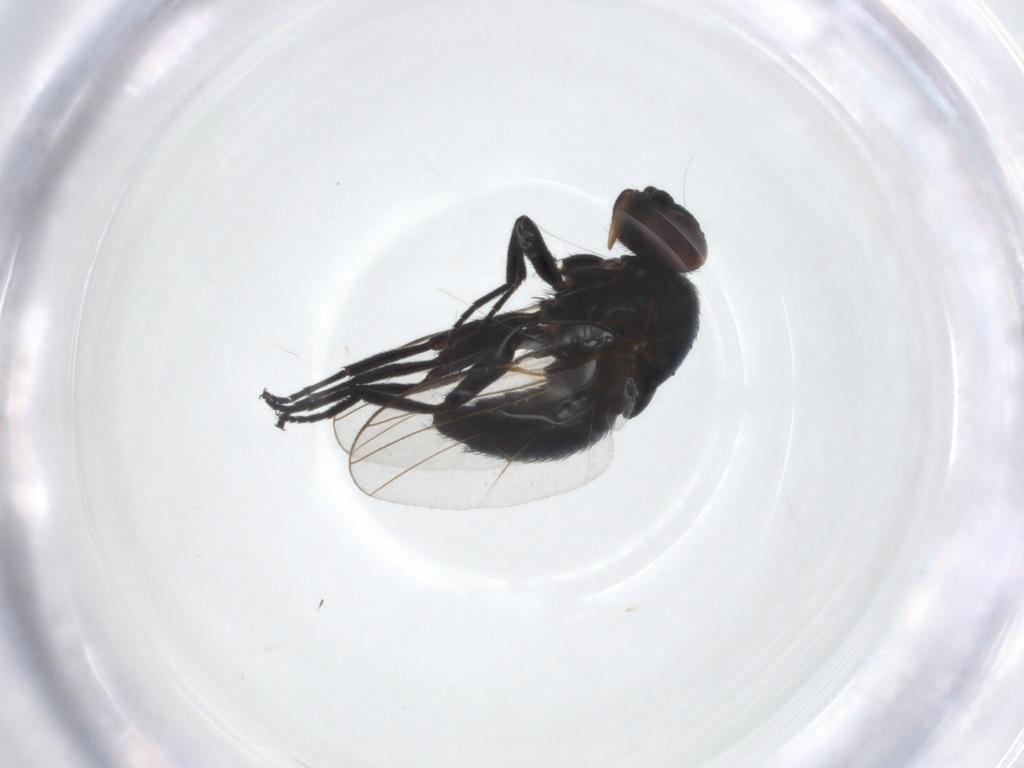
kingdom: Animalia
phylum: Arthropoda
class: Insecta
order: Diptera
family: Agromyzidae
